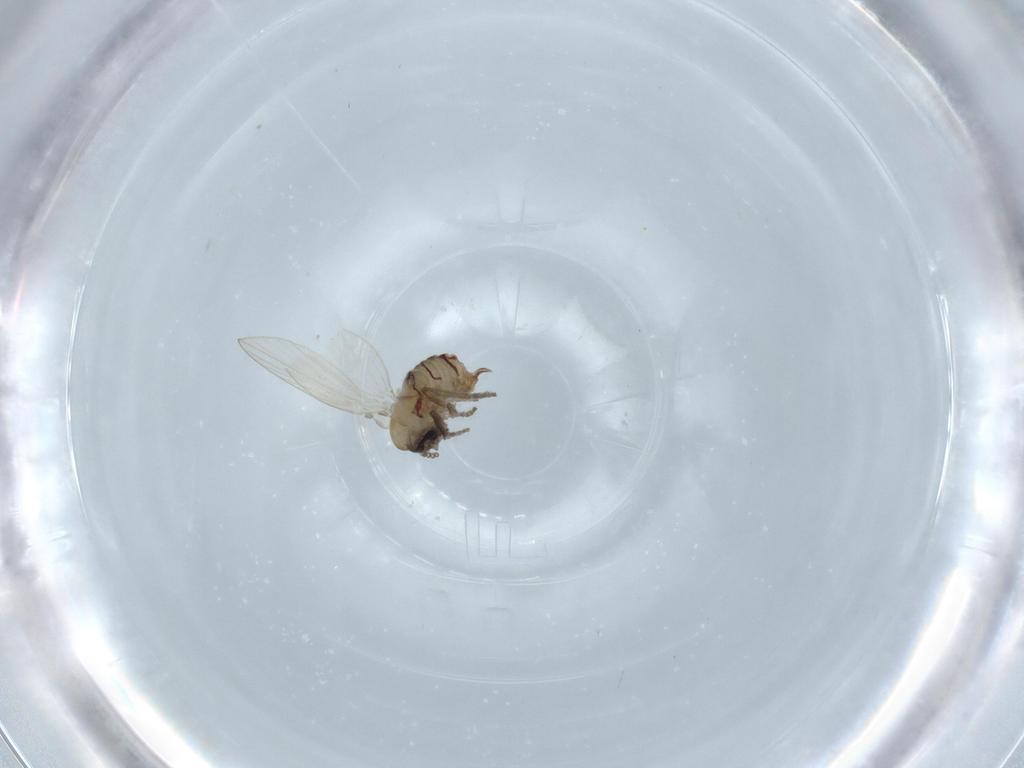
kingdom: Animalia
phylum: Arthropoda
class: Insecta
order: Diptera
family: Psychodidae
